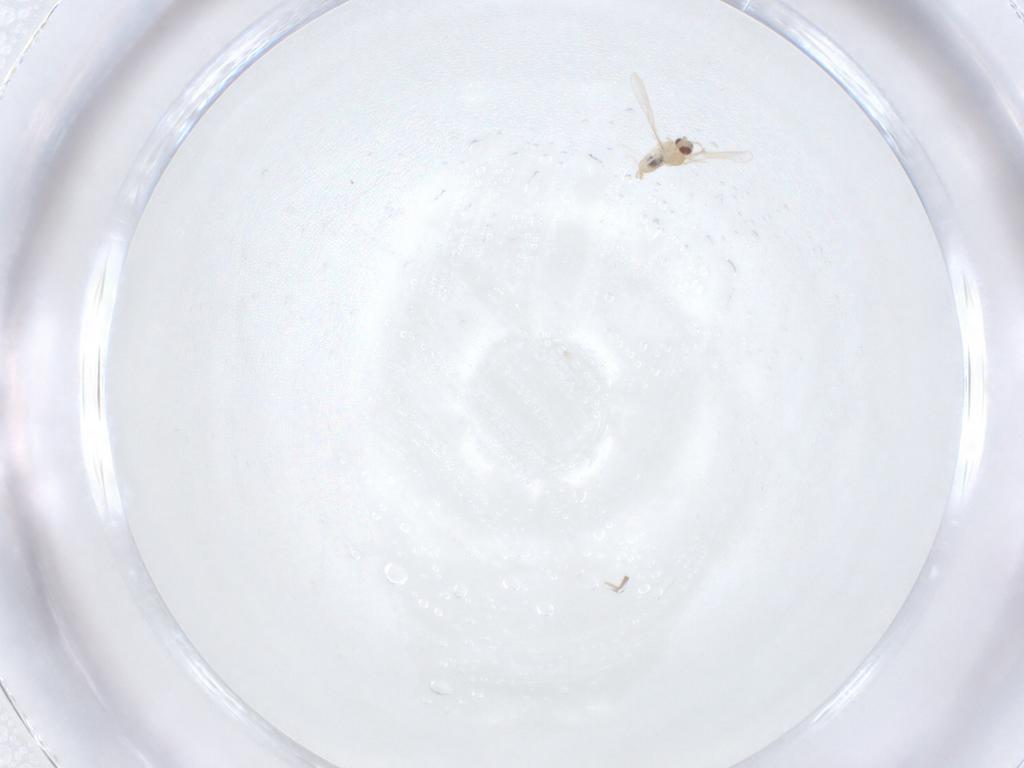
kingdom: Animalia
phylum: Arthropoda
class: Insecta
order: Diptera
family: Cecidomyiidae
